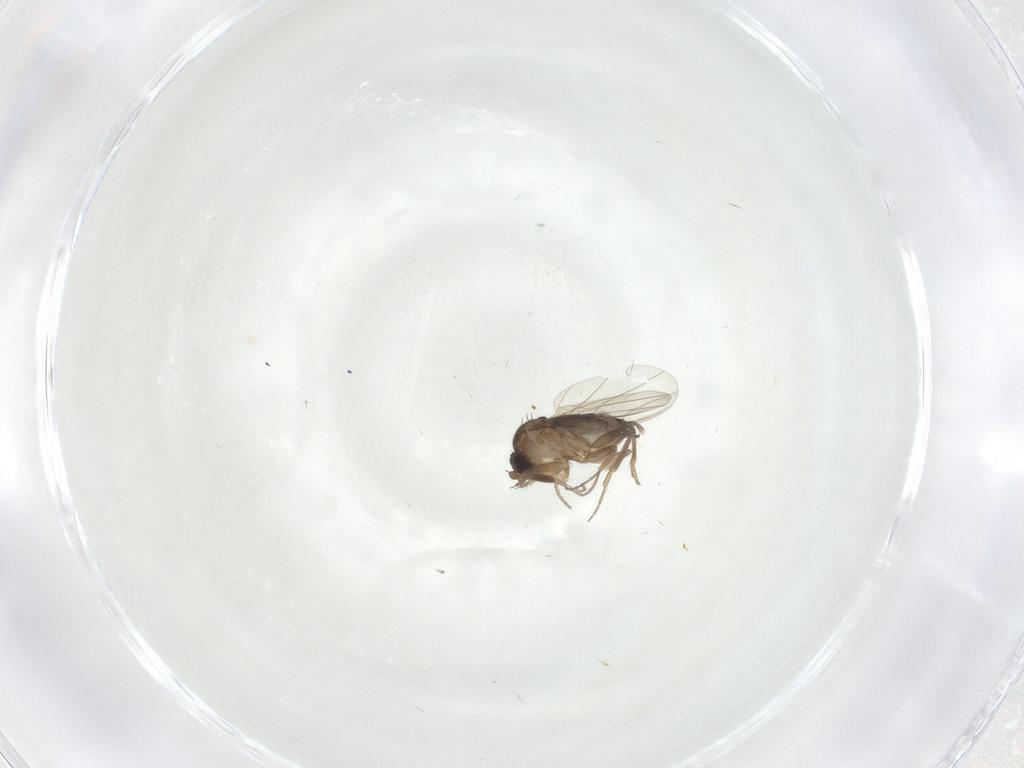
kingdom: Animalia
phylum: Arthropoda
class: Insecta
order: Diptera
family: Phoridae
